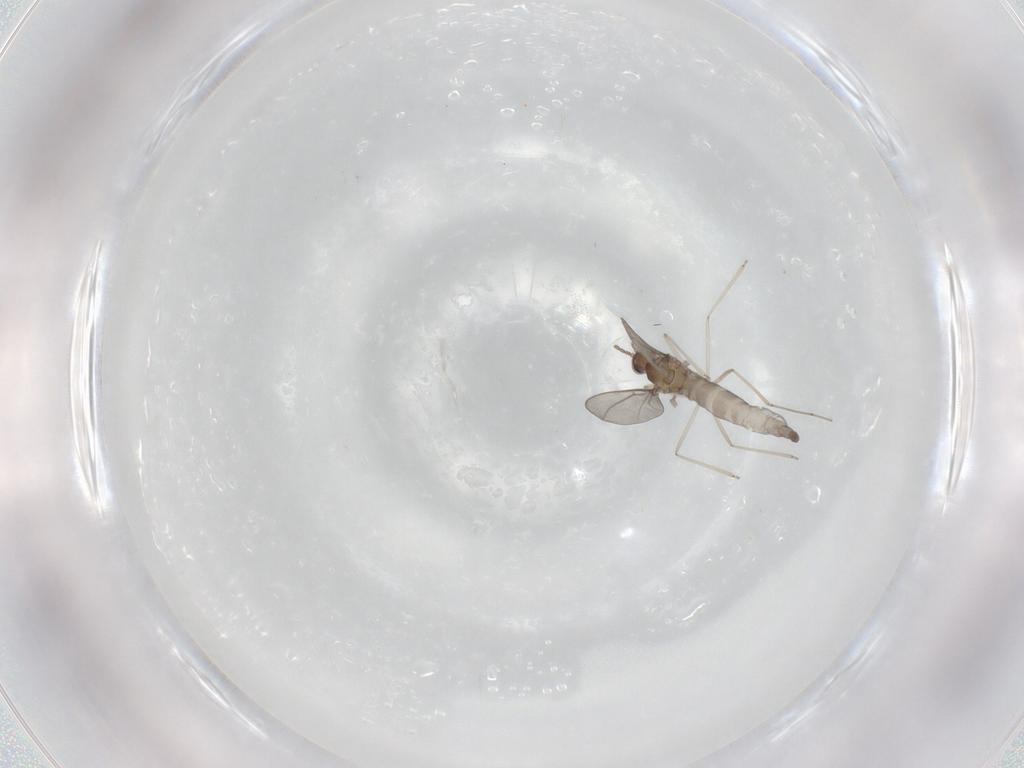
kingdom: Animalia
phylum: Arthropoda
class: Insecta
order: Diptera
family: Cecidomyiidae
